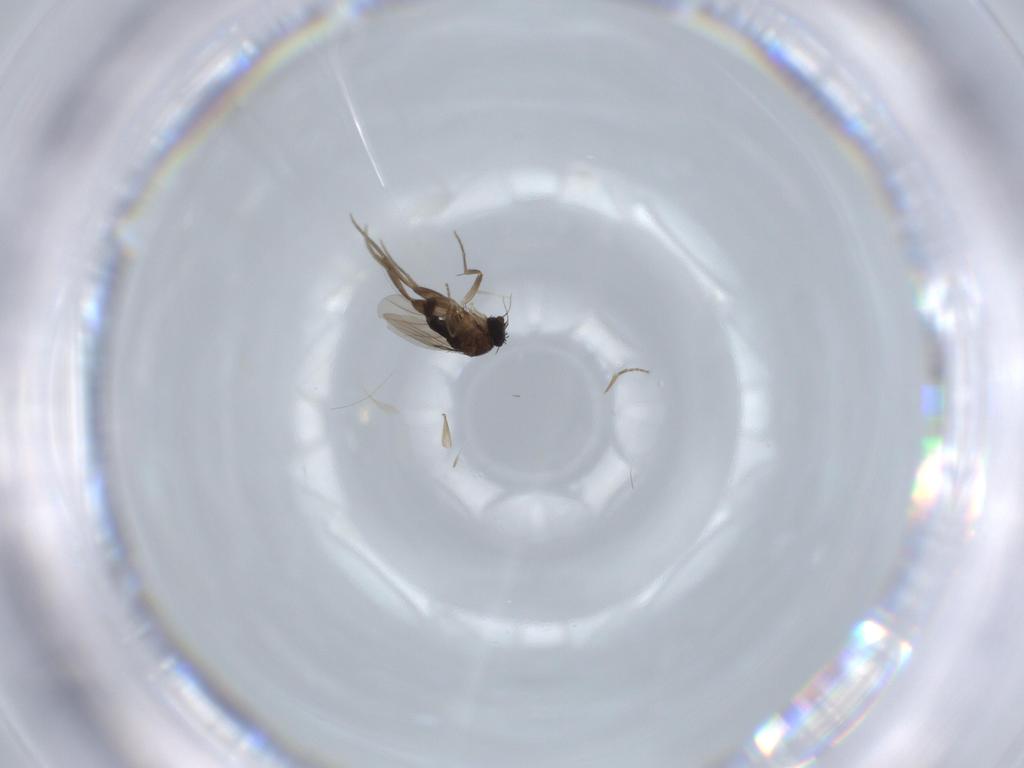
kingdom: Animalia
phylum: Arthropoda
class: Insecta
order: Diptera
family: Phoridae
